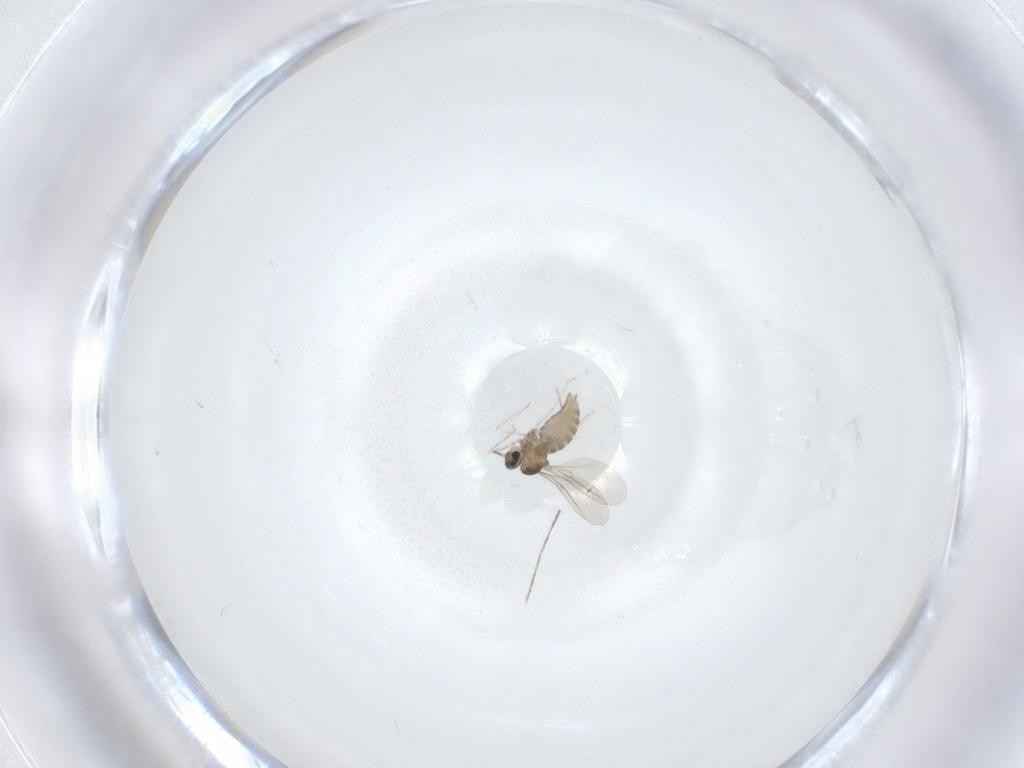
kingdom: Animalia
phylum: Arthropoda
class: Insecta
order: Diptera
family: Cecidomyiidae
